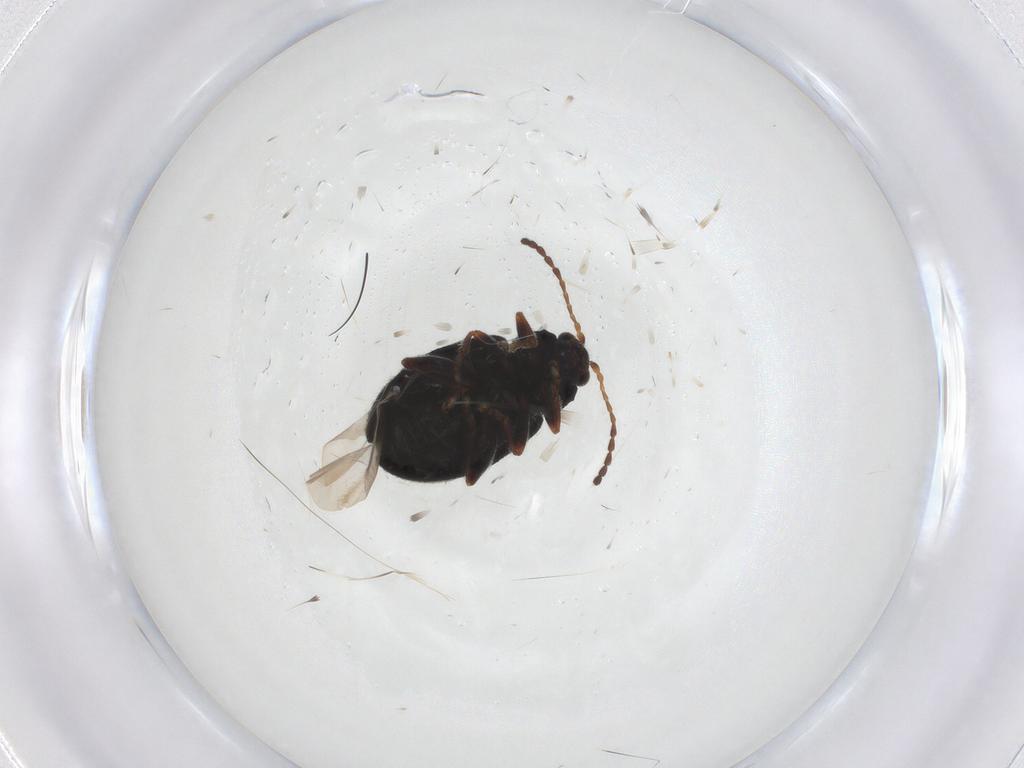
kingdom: Animalia
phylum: Arthropoda
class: Insecta
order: Coleoptera
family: Chrysomelidae
